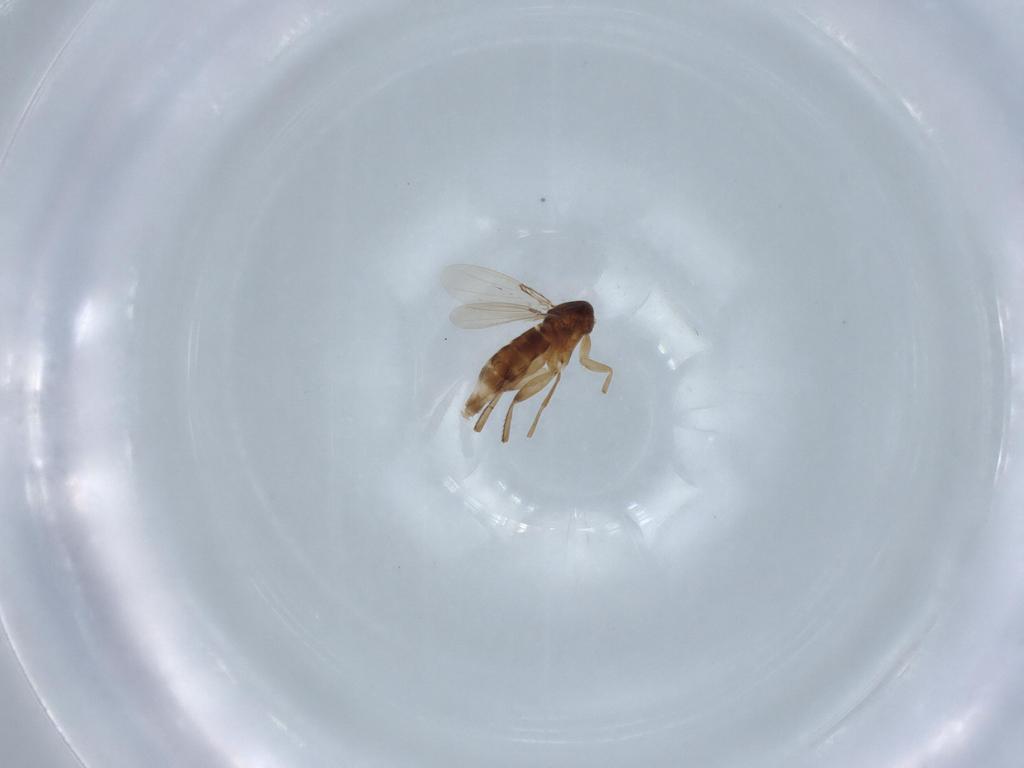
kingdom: Animalia
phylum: Arthropoda
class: Insecta
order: Diptera
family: Phoridae
